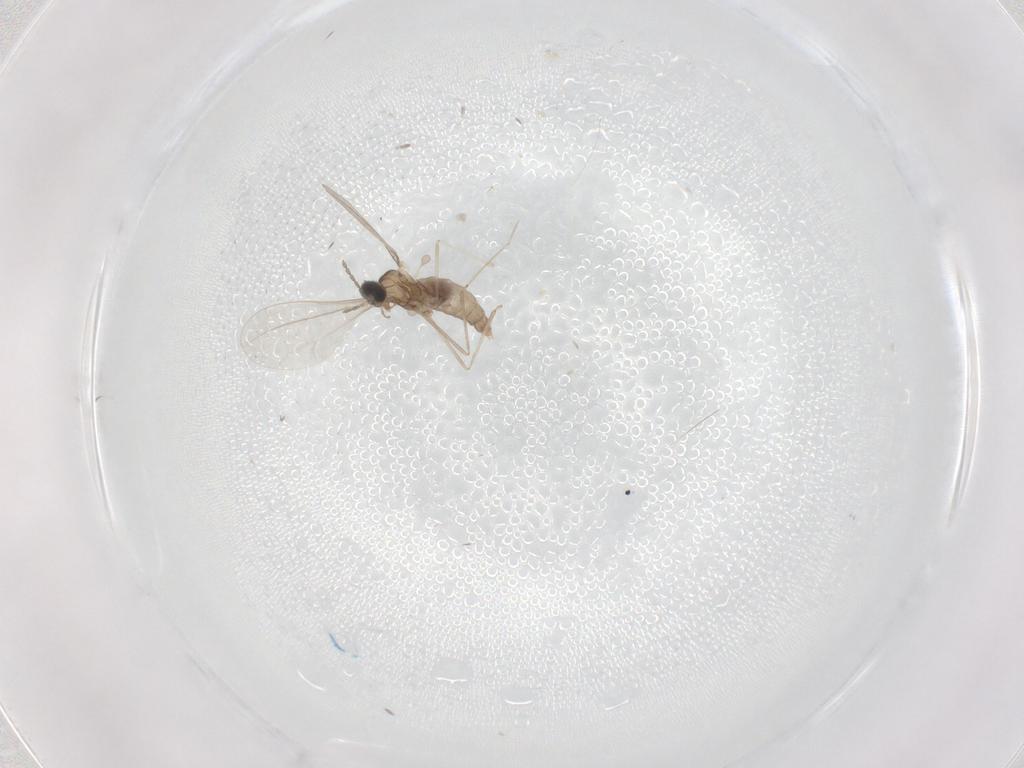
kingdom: Animalia
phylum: Arthropoda
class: Insecta
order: Diptera
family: Cecidomyiidae
